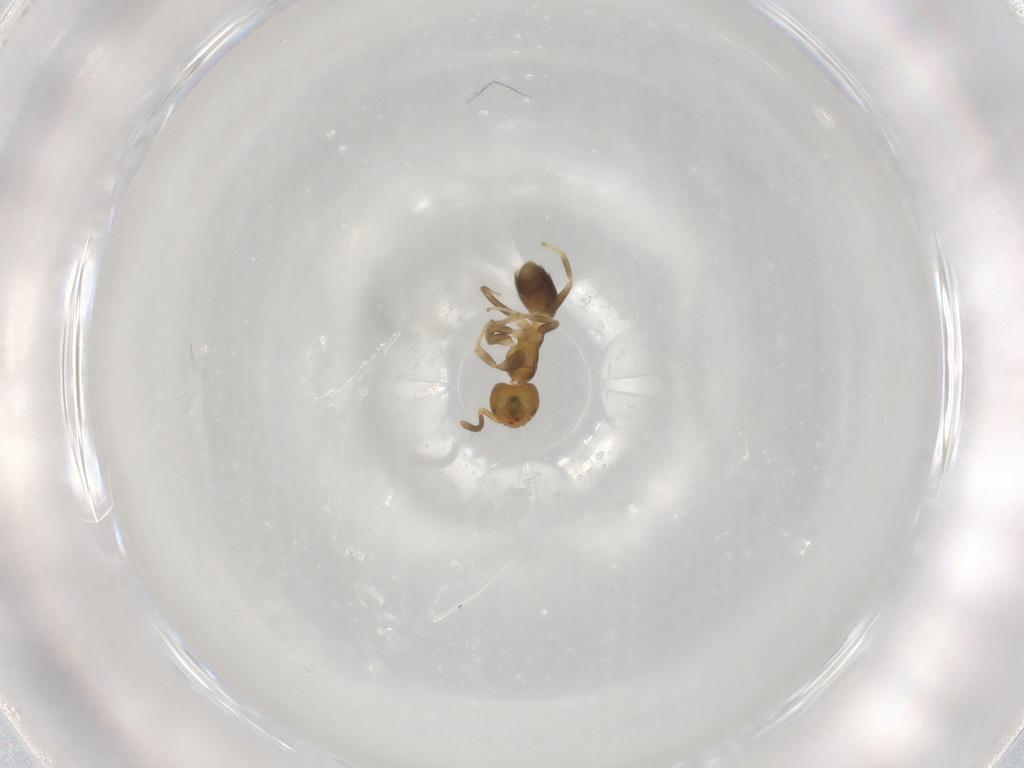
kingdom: Animalia
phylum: Arthropoda
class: Insecta
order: Hymenoptera
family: Formicidae
